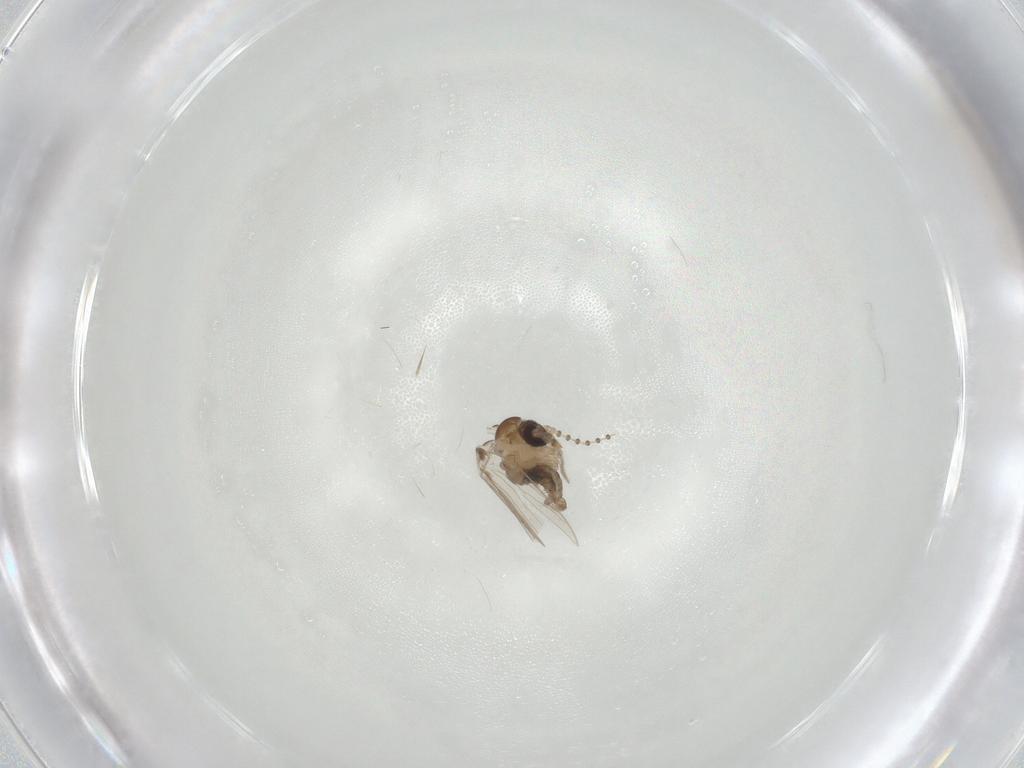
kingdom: Animalia
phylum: Arthropoda
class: Insecta
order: Diptera
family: Psychodidae
